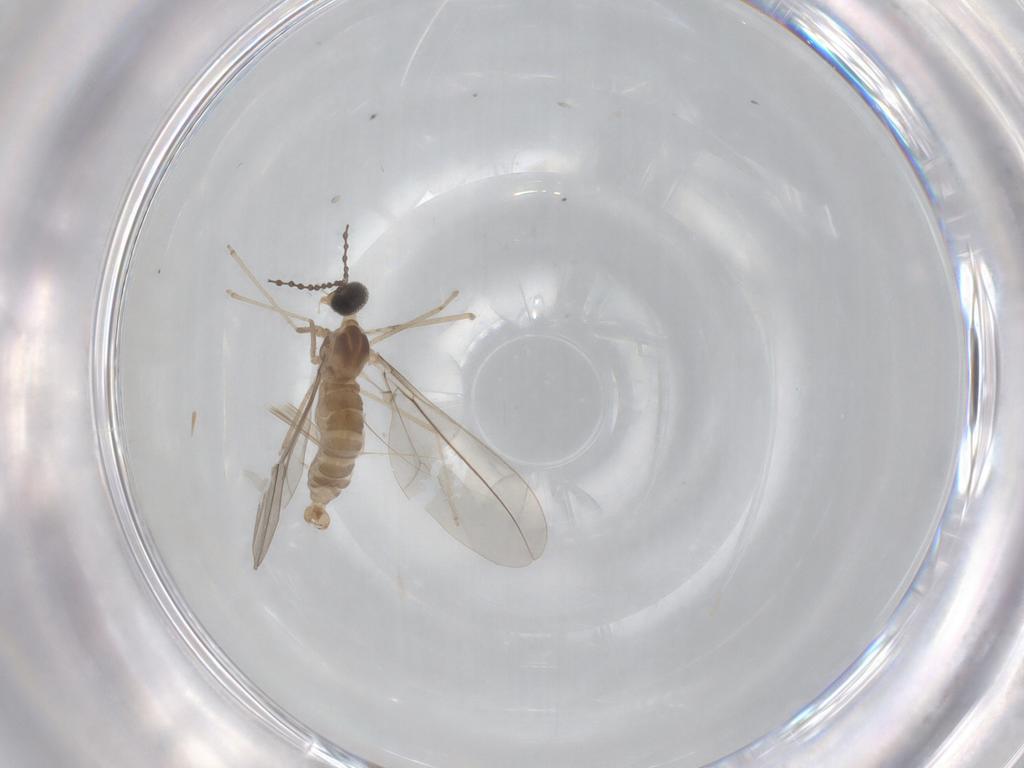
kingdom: Animalia
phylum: Arthropoda
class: Insecta
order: Diptera
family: Cecidomyiidae
